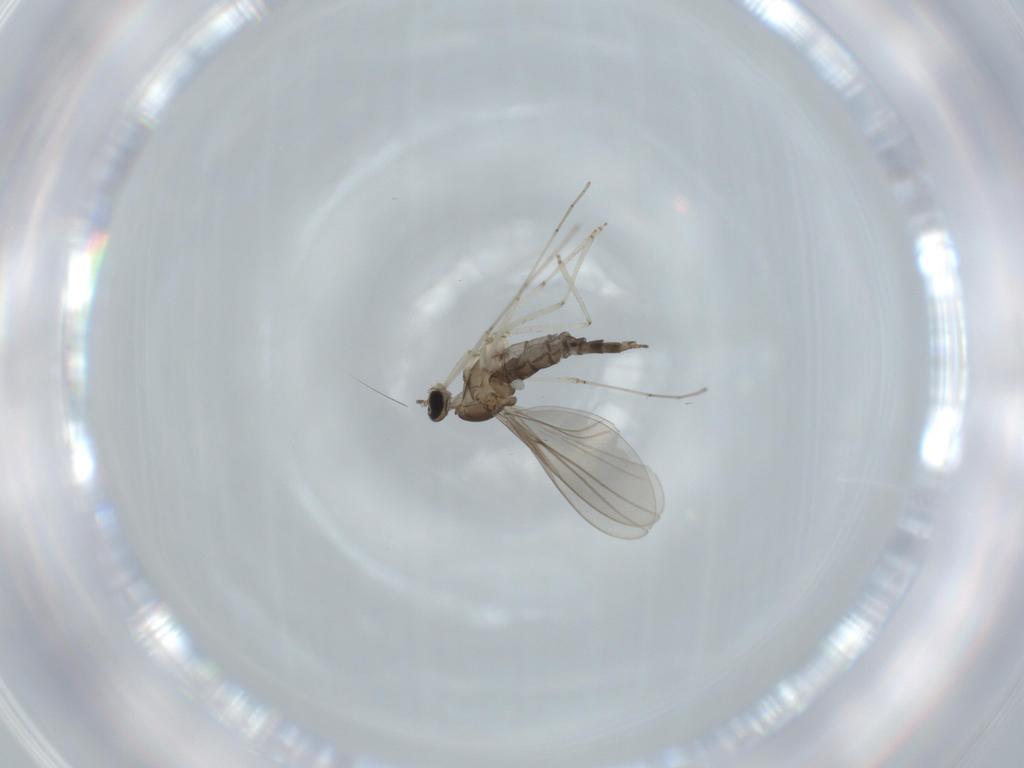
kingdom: Animalia
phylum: Arthropoda
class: Insecta
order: Diptera
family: Cecidomyiidae
